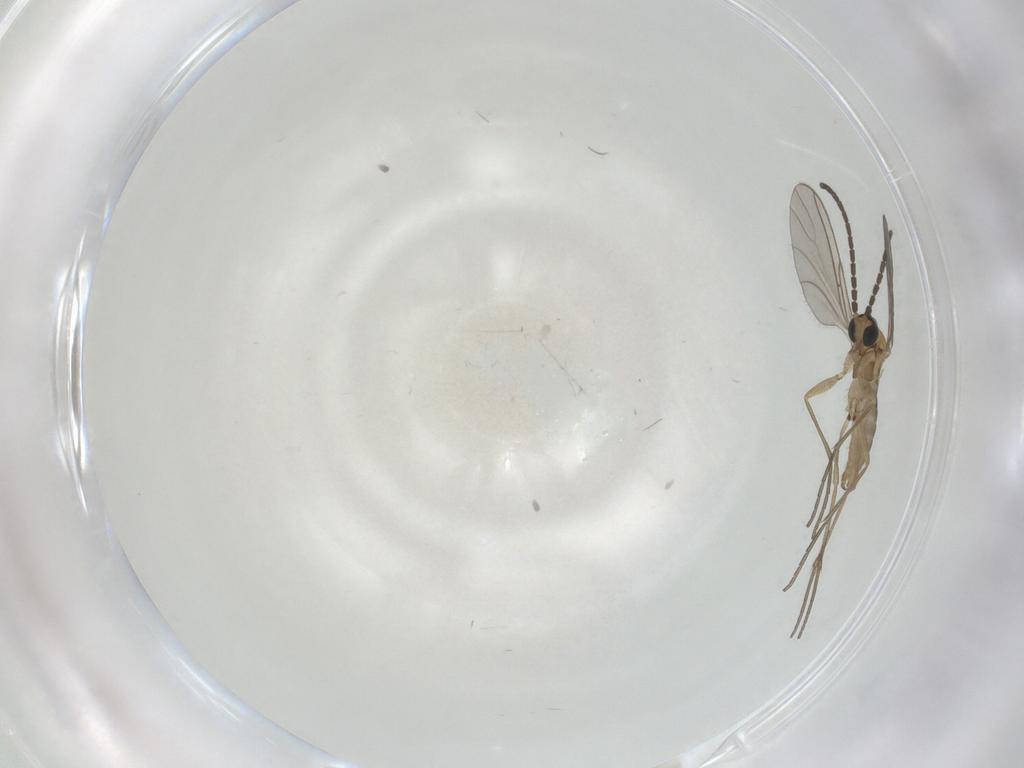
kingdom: Animalia
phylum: Arthropoda
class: Insecta
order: Diptera
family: Sciaridae
